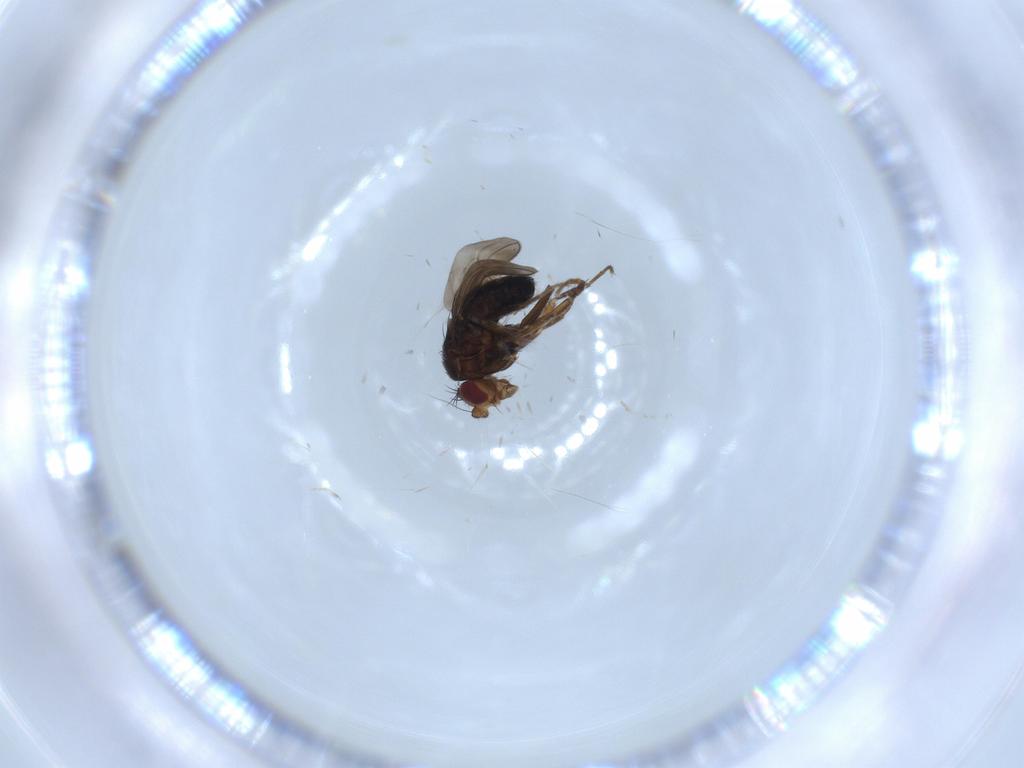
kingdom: Animalia
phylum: Arthropoda
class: Insecta
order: Diptera
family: Sphaeroceridae
